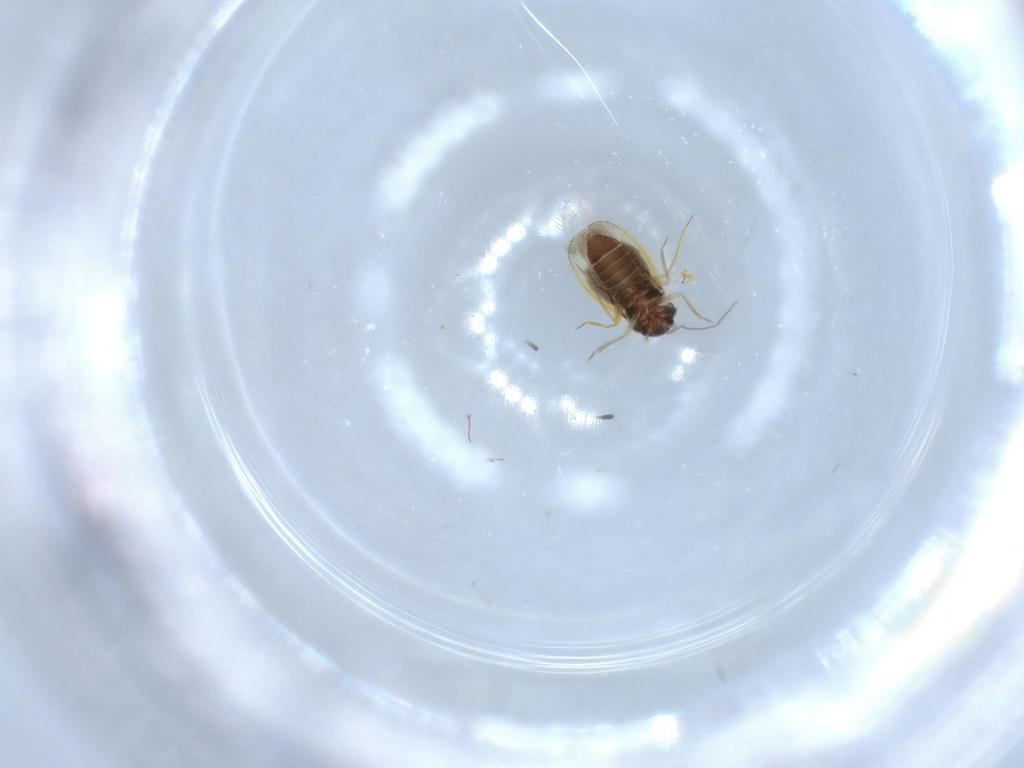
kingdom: Animalia
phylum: Arthropoda
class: Insecta
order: Hemiptera
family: Schizopteridae
